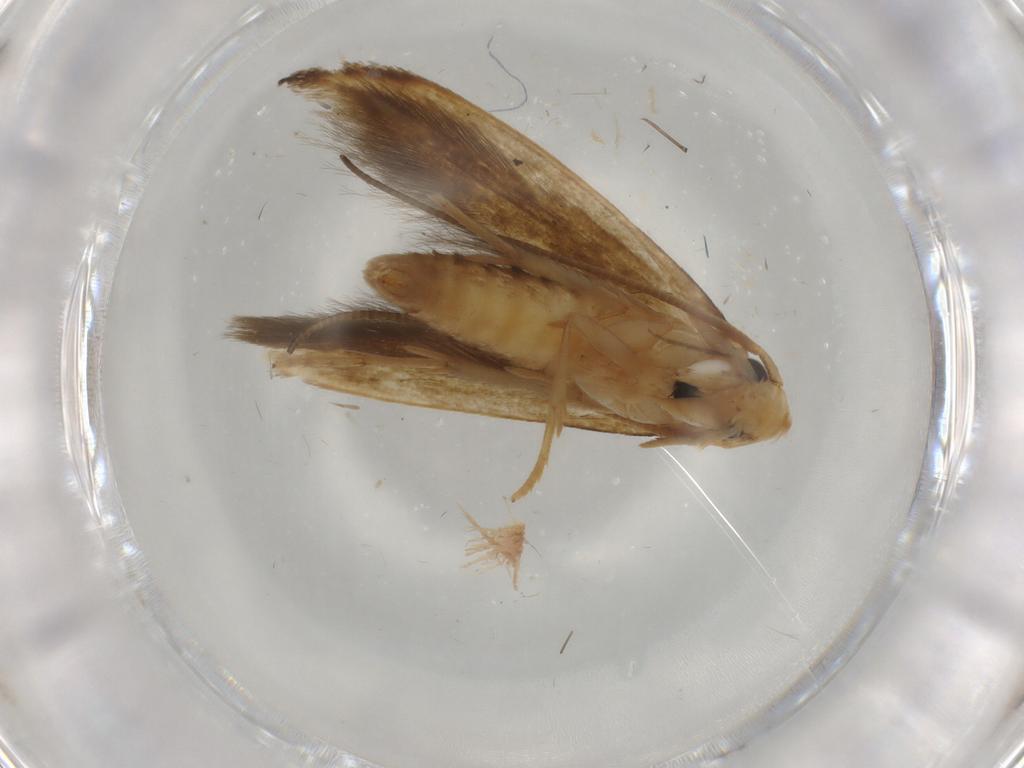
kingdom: Animalia
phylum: Arthropoda
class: Insecta
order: Lepidoptera
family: Tineidae
